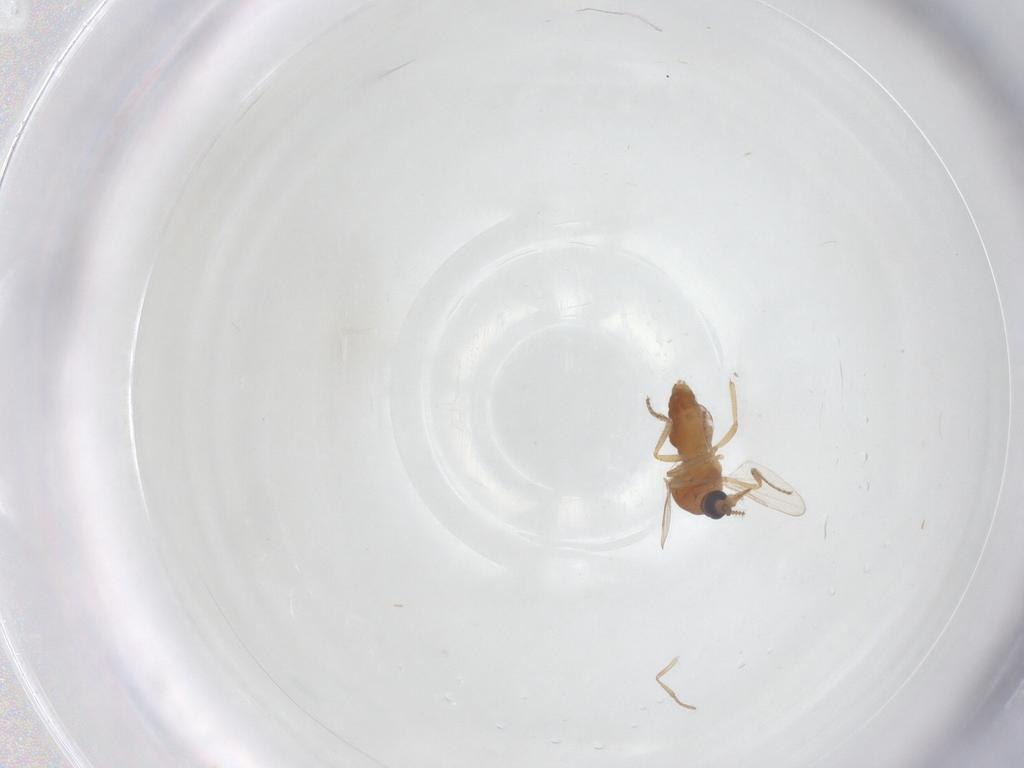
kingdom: Animalia
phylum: Arthropoda
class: Insecta
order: Diptera
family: Ceratopogonidae
